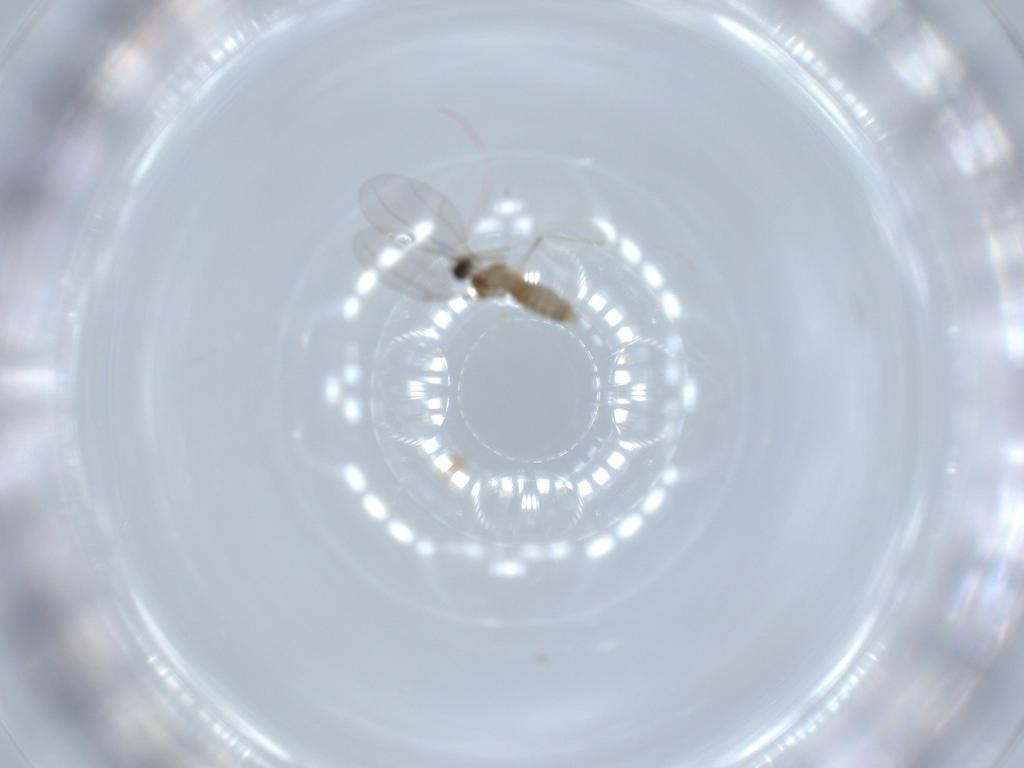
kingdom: Animalia
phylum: Arthropoda
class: Insecta
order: Diptera
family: Cecidomyiidae
